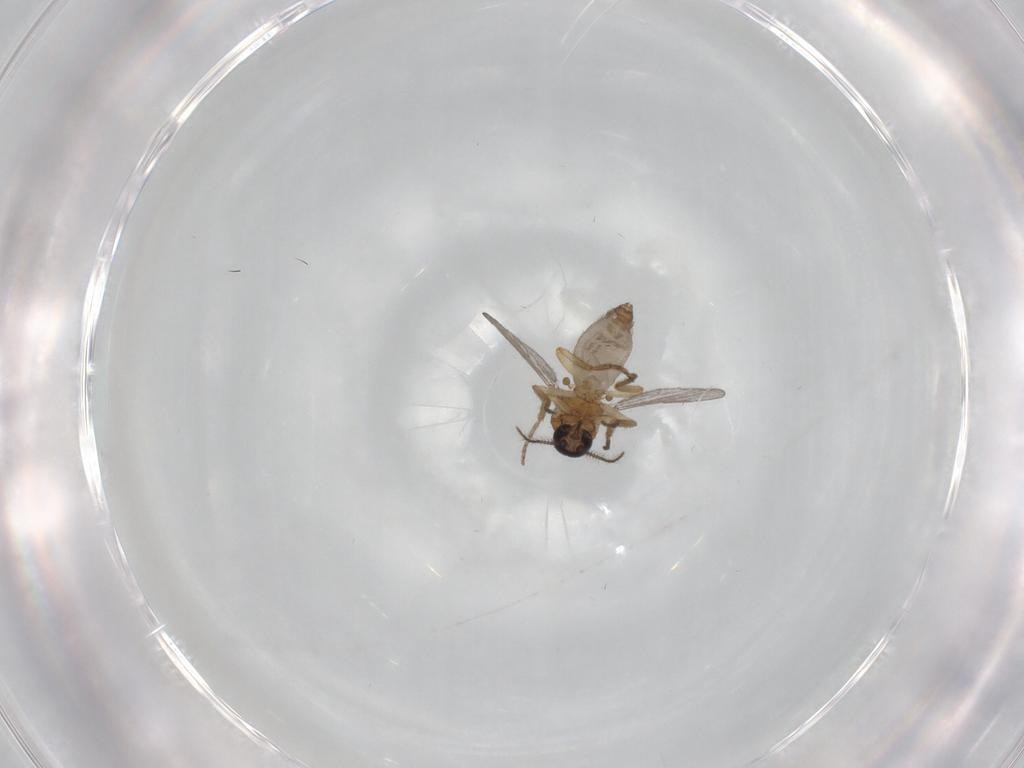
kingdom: Animalia
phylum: Arthropoda
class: Insecta
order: Diptera
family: Ceratopogonidae
